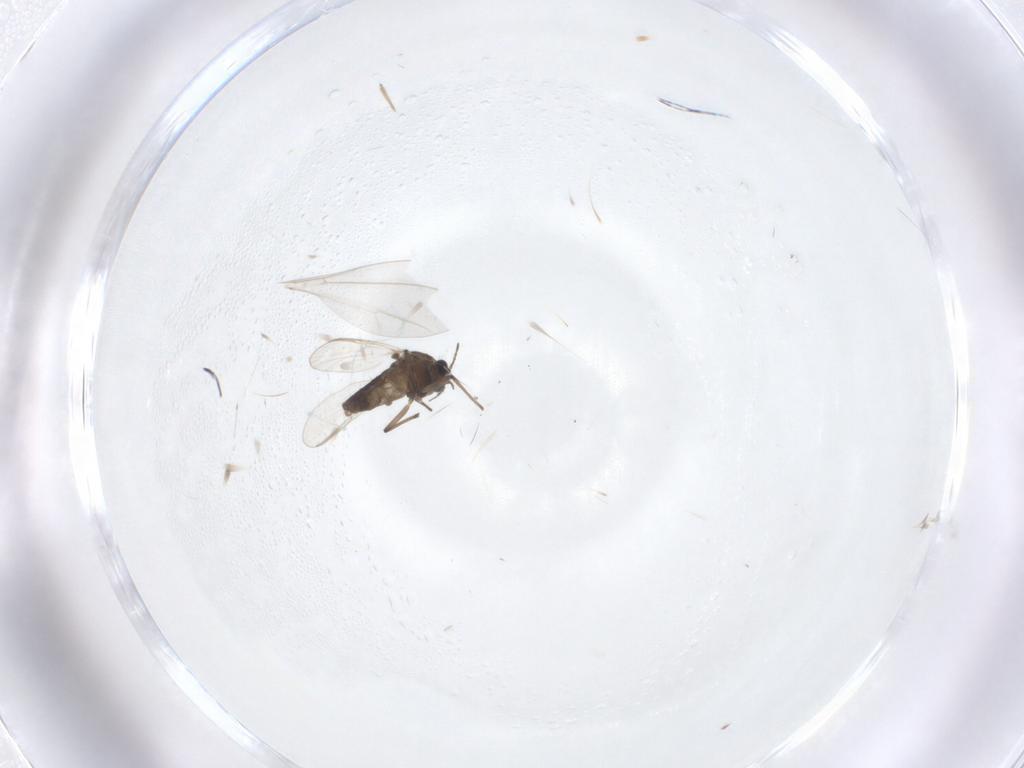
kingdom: Animalia
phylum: Arthropoda
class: Insecta
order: Diptera
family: Chironomidae
